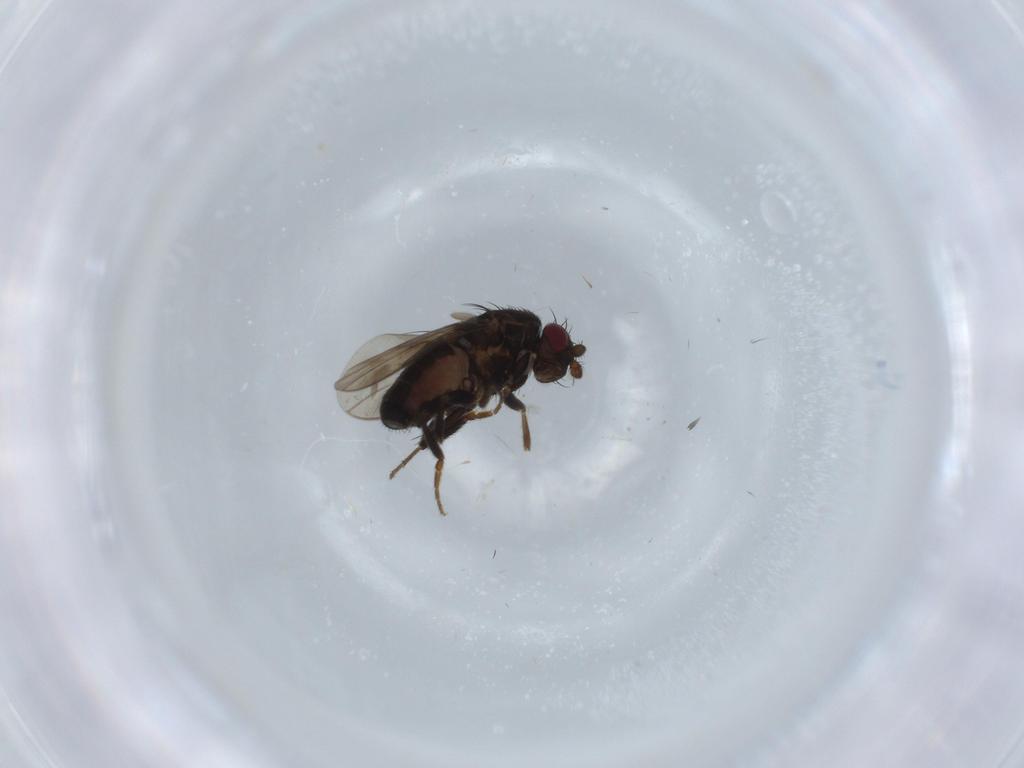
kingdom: Animalia
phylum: Arthropoda
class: Insecta
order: Diptera
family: Sphaeroceridae
